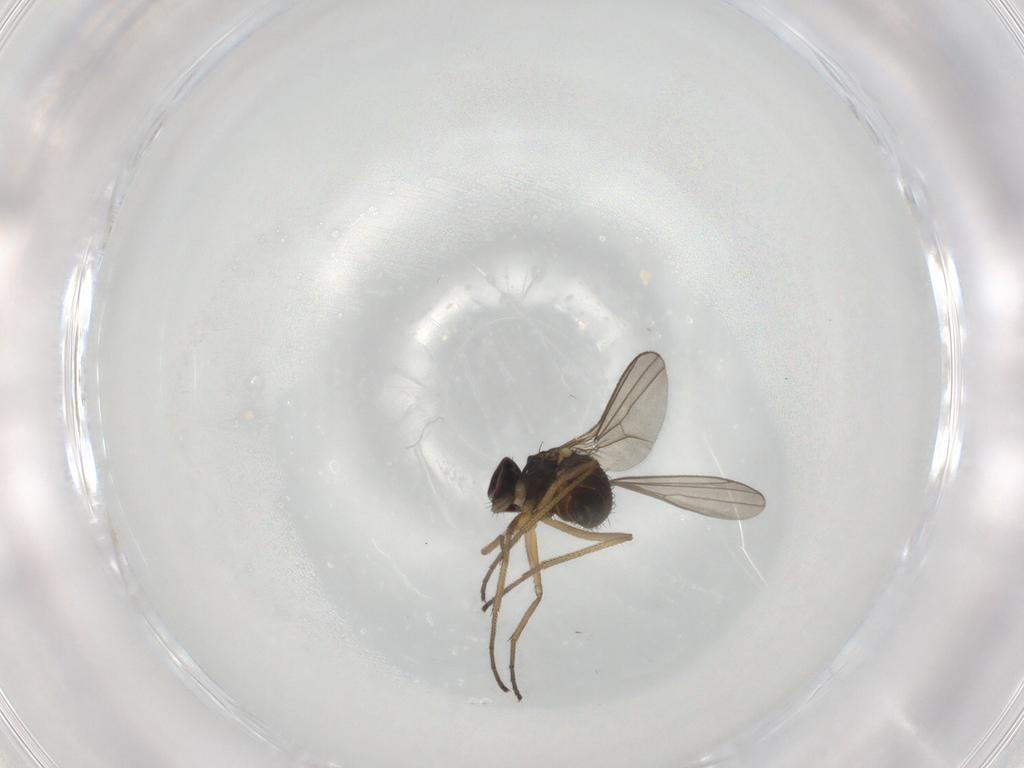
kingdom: Animalia
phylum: Arthropoda
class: Insecta
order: Diptera
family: Dolichopodidae
